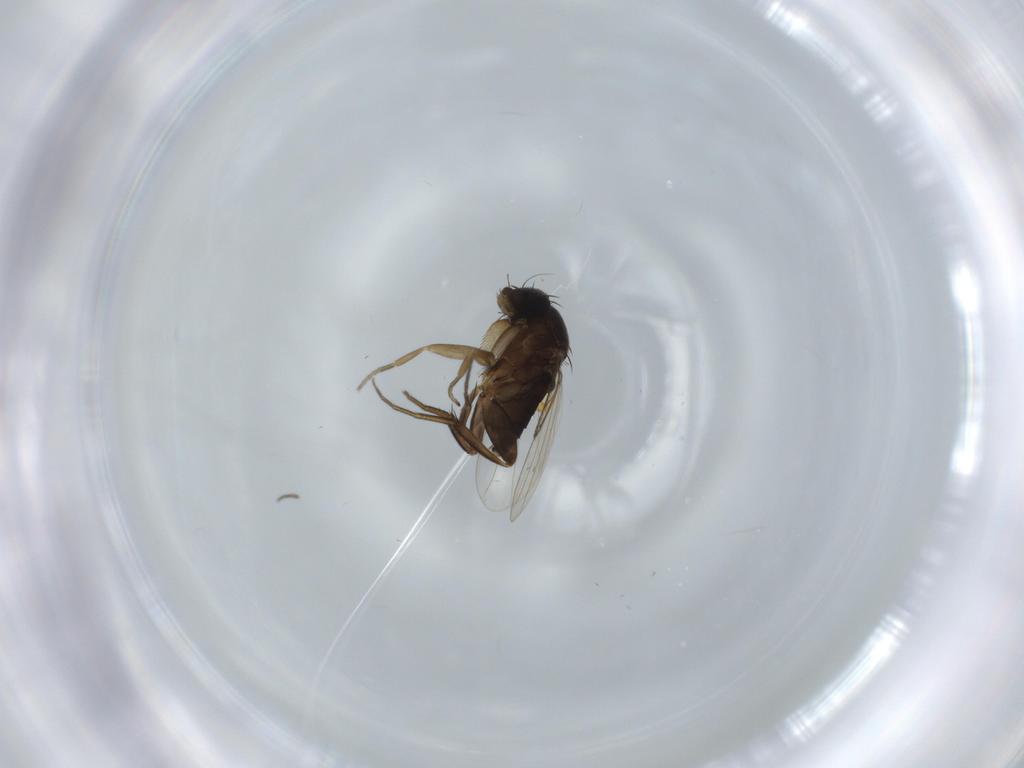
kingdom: Animalia
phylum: Arthropoda
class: Insecta
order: Diptera
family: Phoridae
